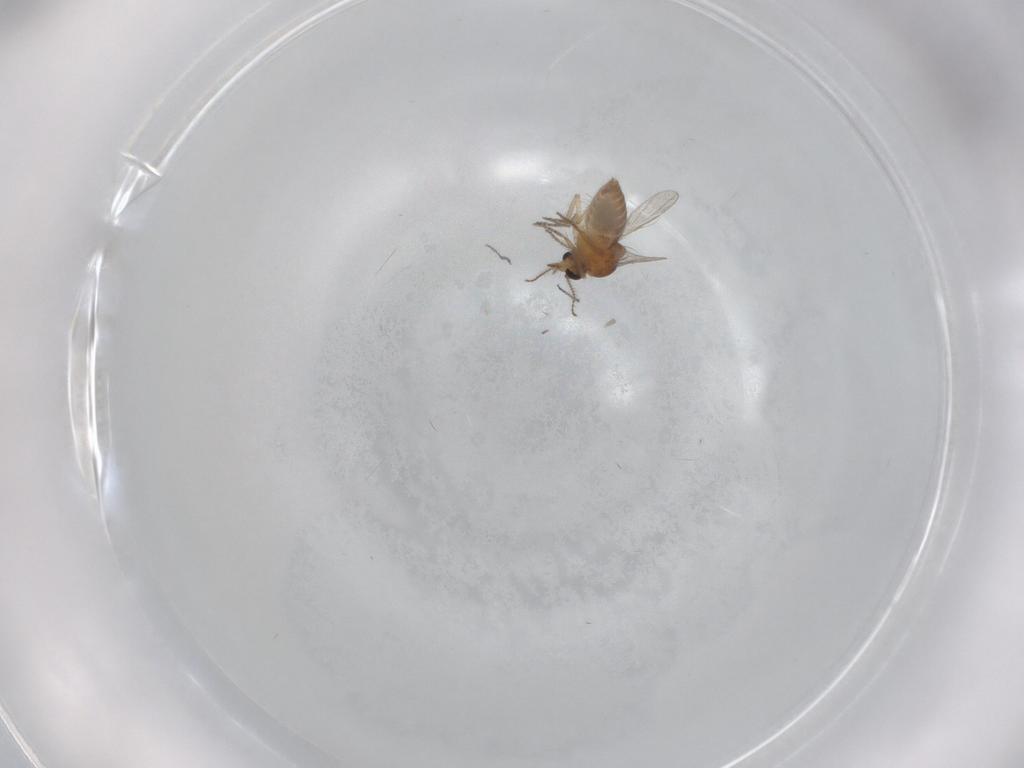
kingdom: Animalia
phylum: Arthropoda
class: Insecta
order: Diptera
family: Ceratopogonidae
